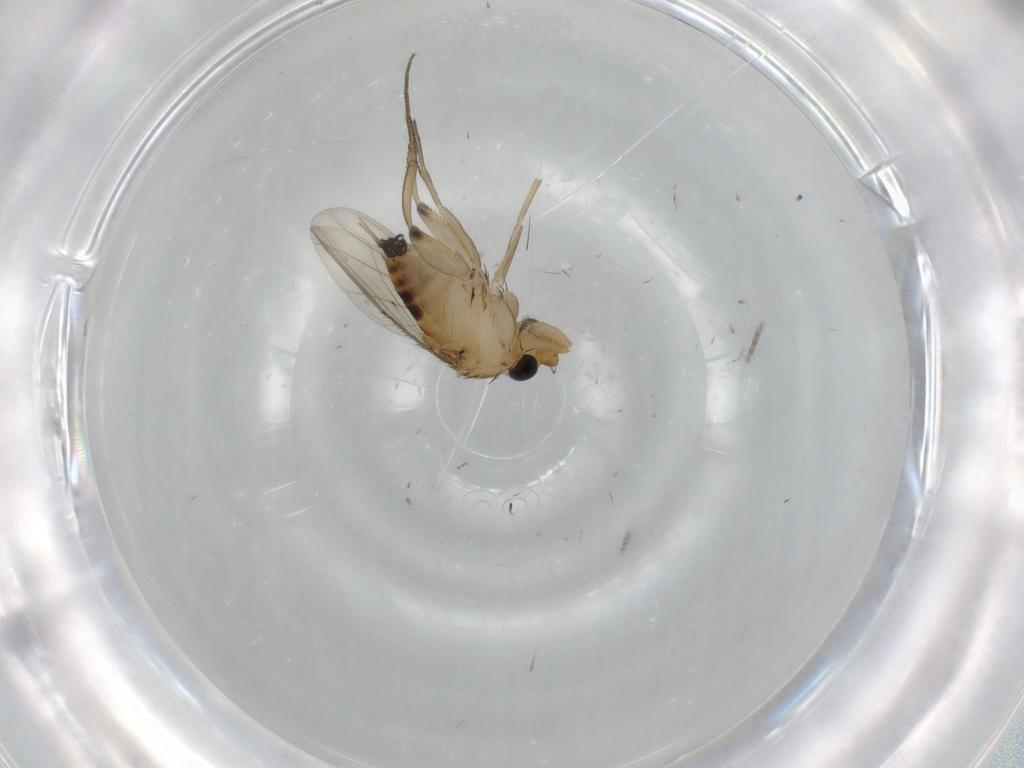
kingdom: Animalia
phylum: Arthropoda
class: Insecta
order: Diptera
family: Phoridae
